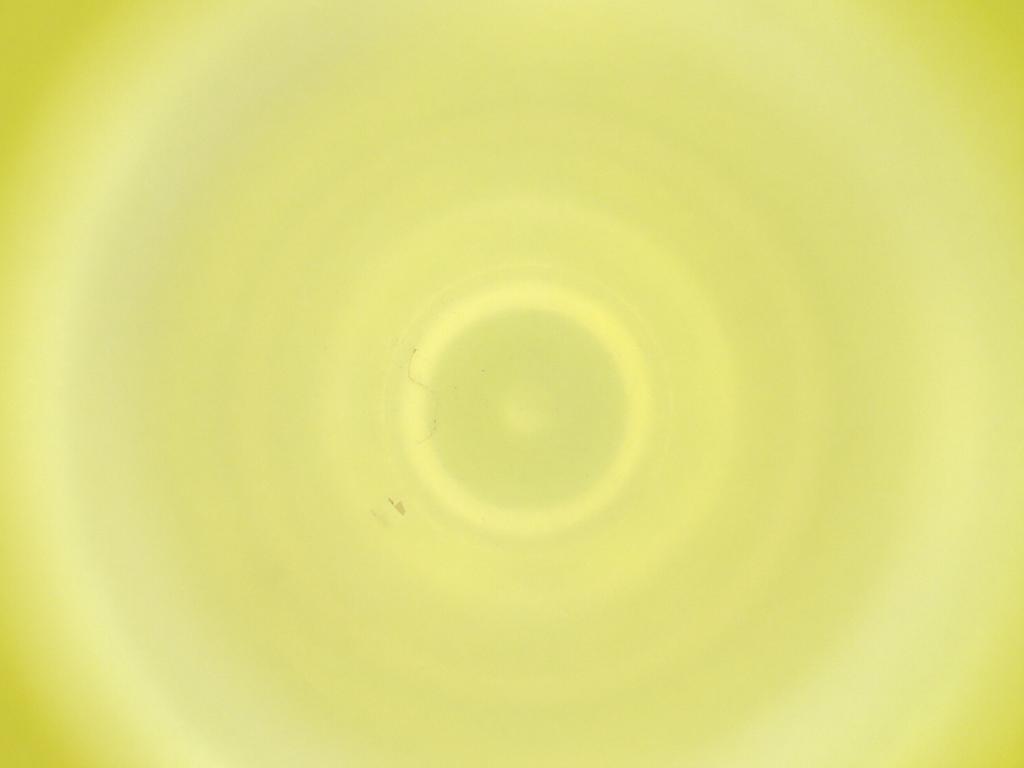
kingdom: Animalia
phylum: Arthropoda
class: Insecta
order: Diptera
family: Cecidomyiidae
